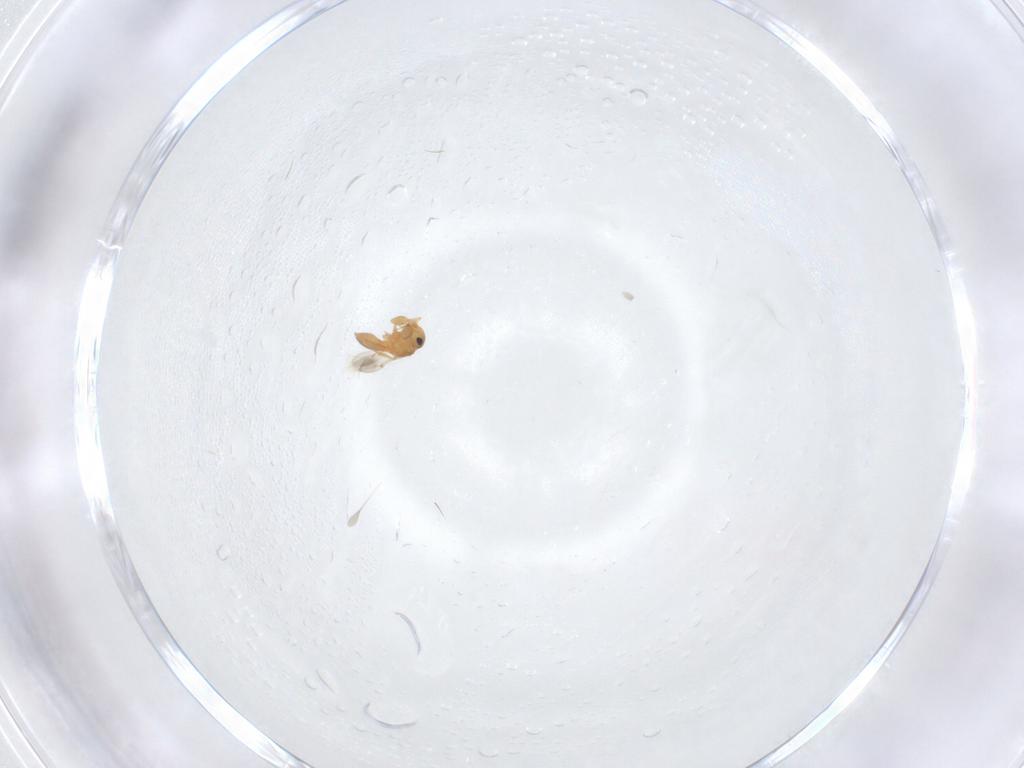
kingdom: Animalia
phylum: Arthropoda
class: Insecta
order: Hymenoptera
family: Scelionidae
